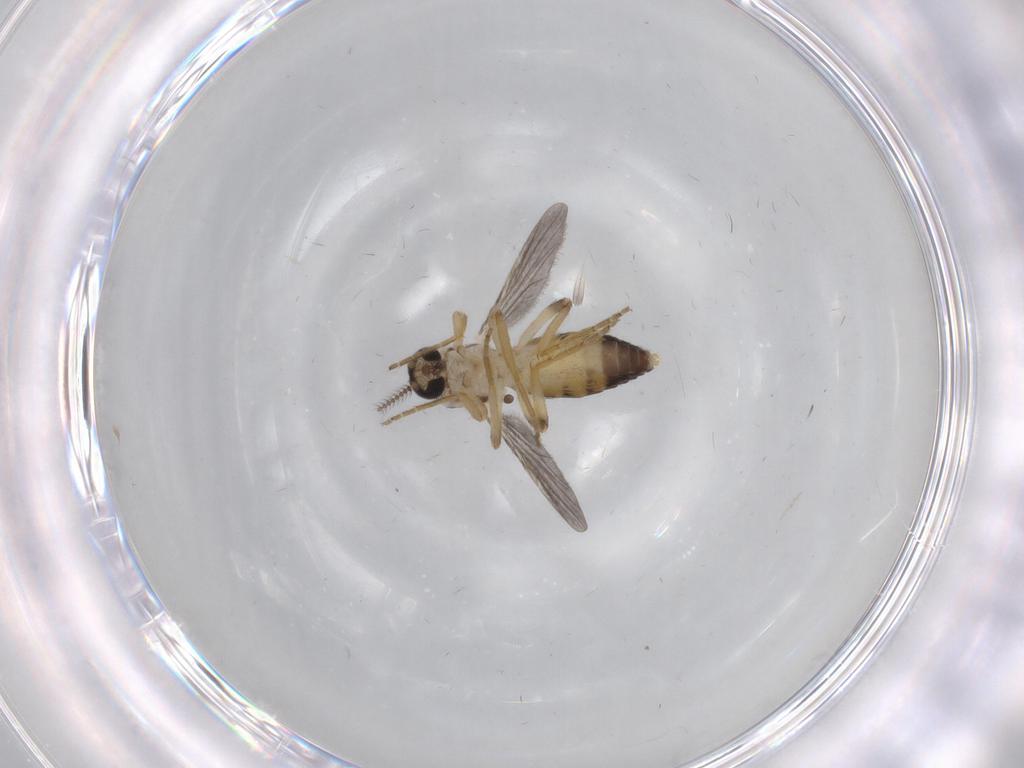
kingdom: Animalia
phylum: Arthropoda
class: Insecta
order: Diptera
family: Ceratopogonidae
